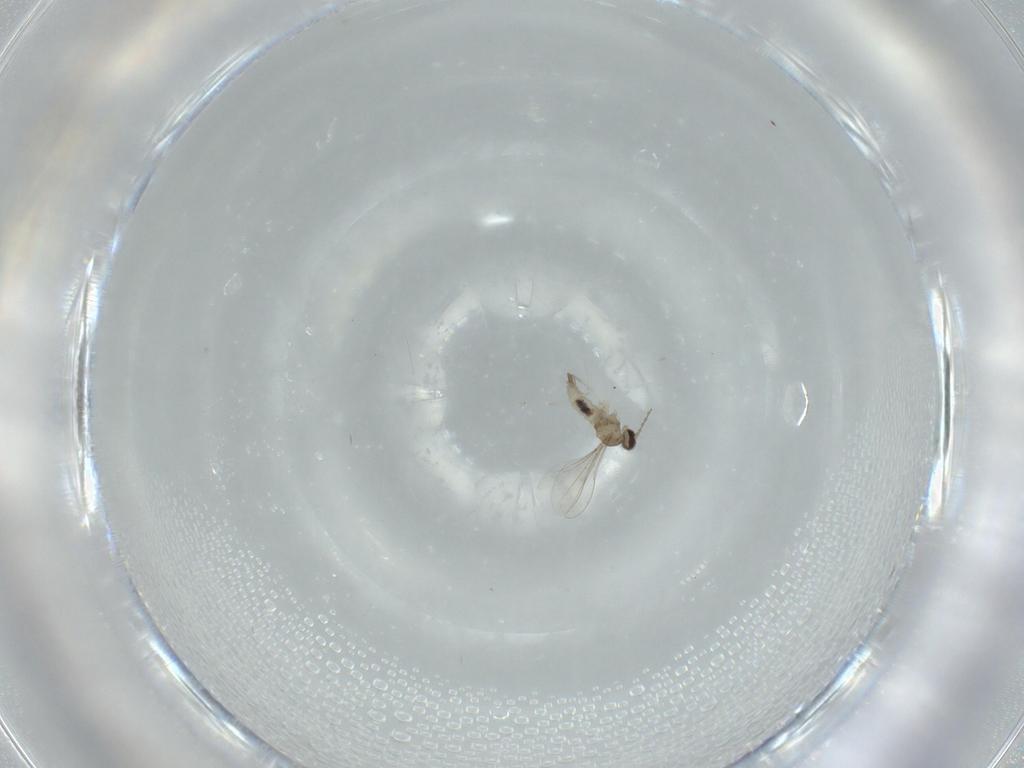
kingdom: Animalia
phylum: Arthropoda
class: Insecta
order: Diptera
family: Cecidomyiidae
